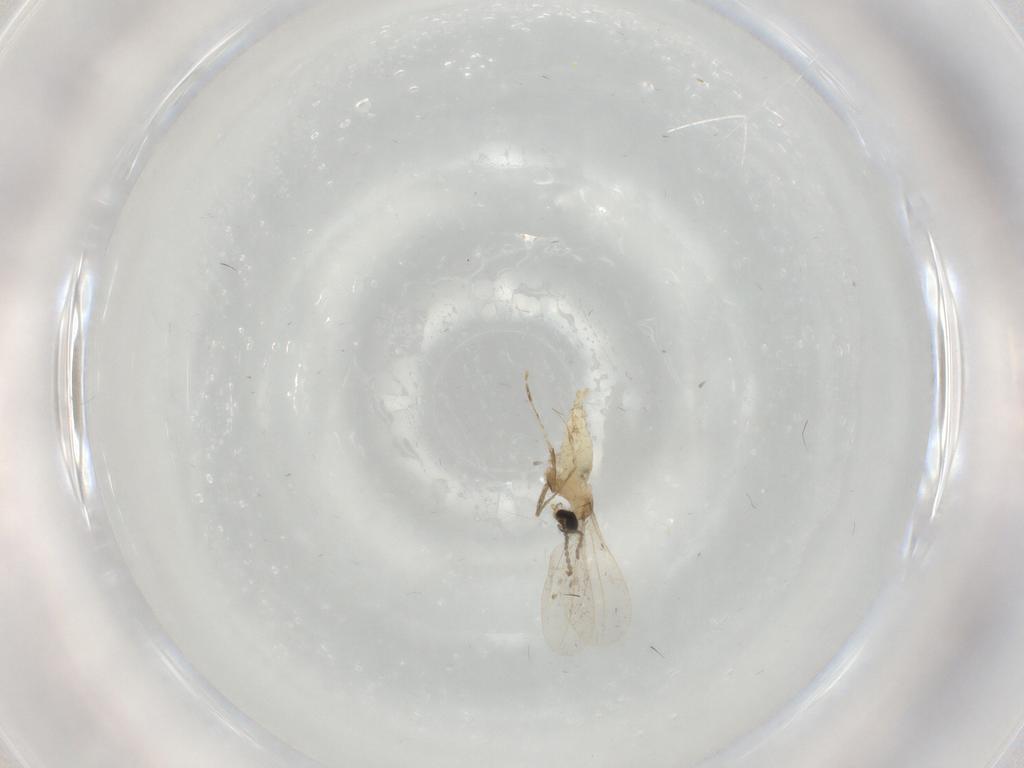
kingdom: Animalia
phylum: Arthropoda
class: Insecta
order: Diptera
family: Cecidomyiidae
